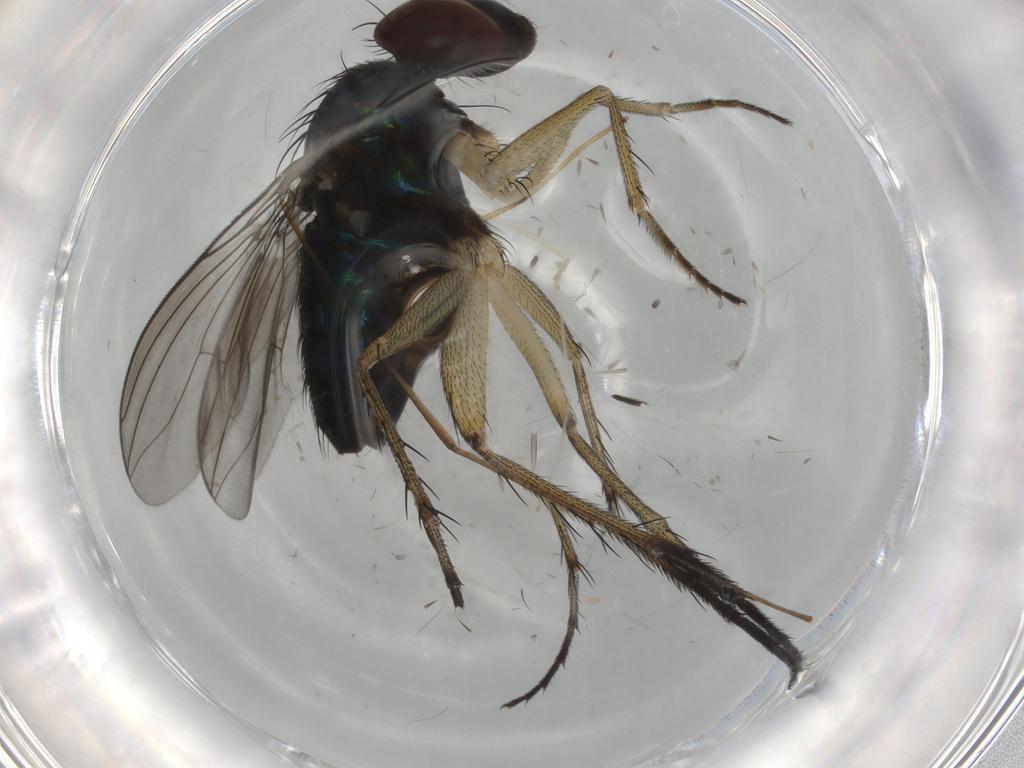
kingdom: Animalia
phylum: Arthropoda
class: Insecta
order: Diptera
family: Dolichopodidae
